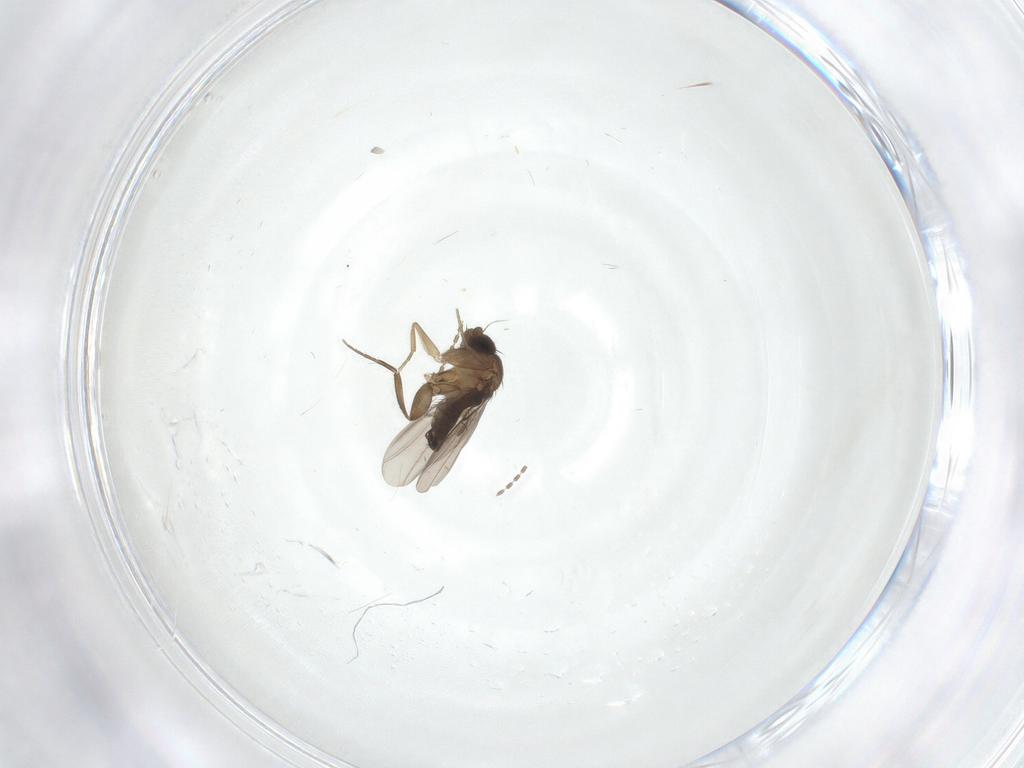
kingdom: Animalia
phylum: Arthropoda
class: Insecta
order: Diptera
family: Phoridae
